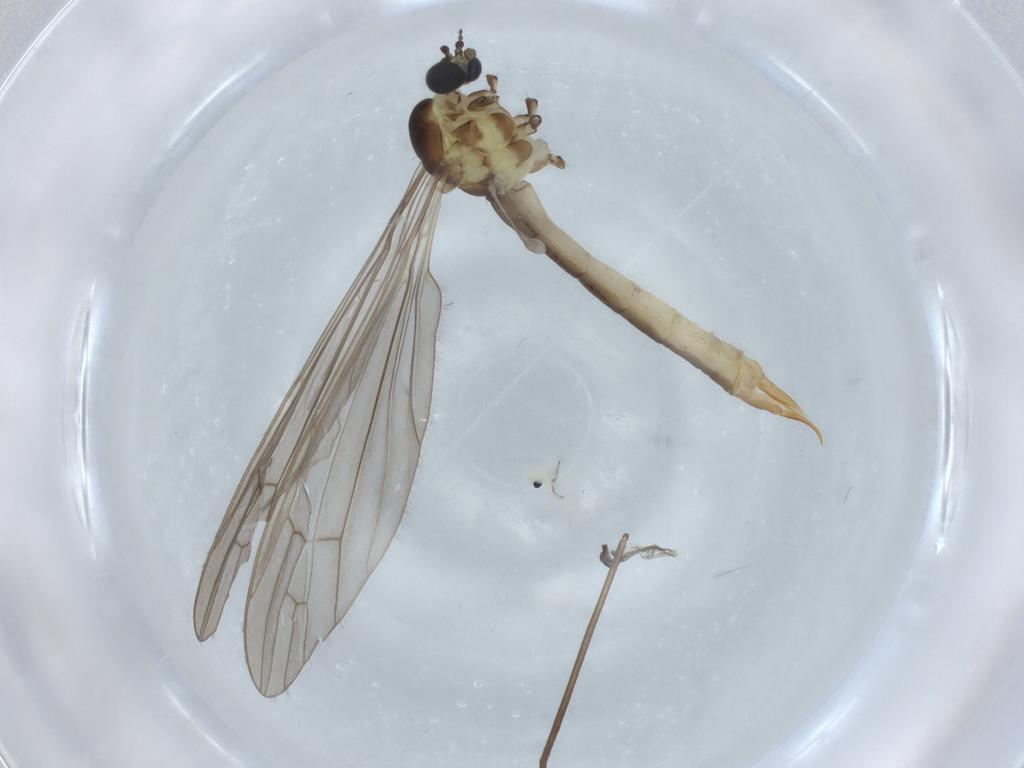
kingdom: Animalia
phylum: Arthropoda
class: Insecta
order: Diptera
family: Limoniidae
